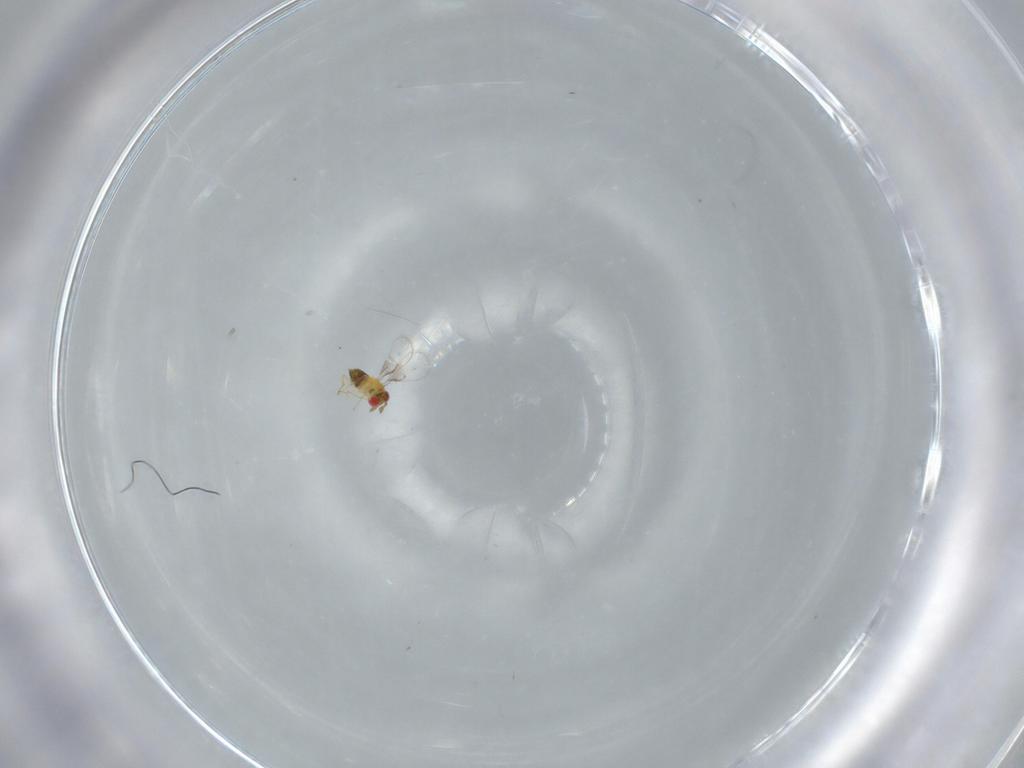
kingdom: Animalia
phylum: Arthropoda
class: Insecta
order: Hymenoptera
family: Trichogrammatidae
